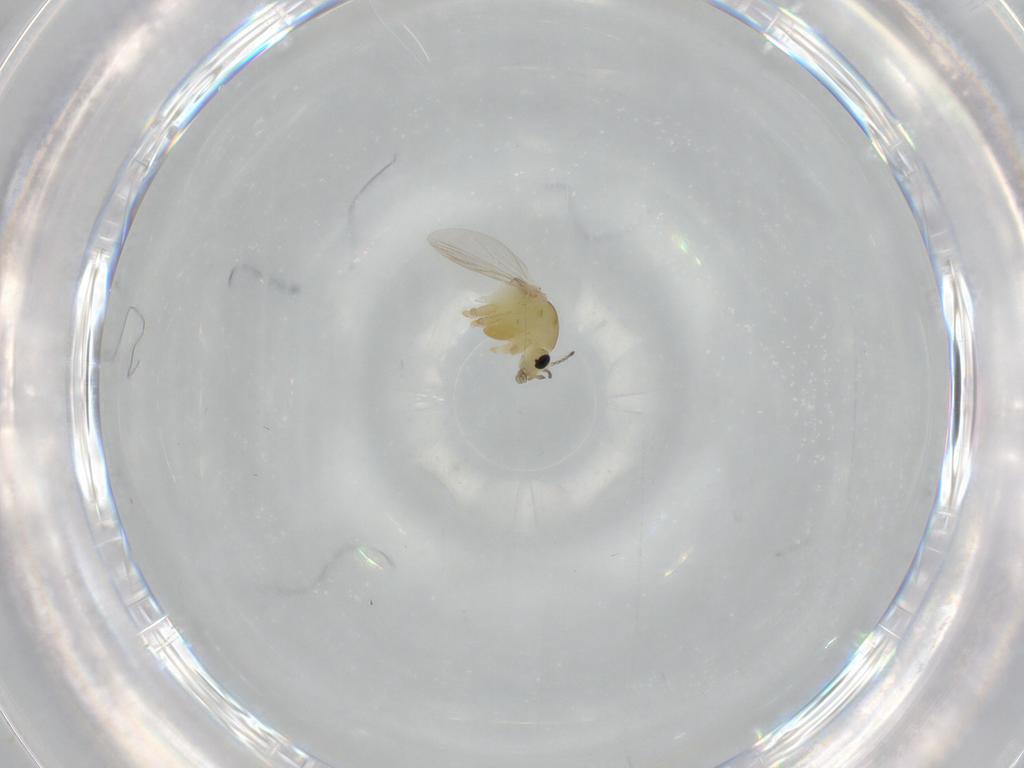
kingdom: Animalia
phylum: Arthropoda
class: Insecta
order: Diptera
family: Chironomidae
